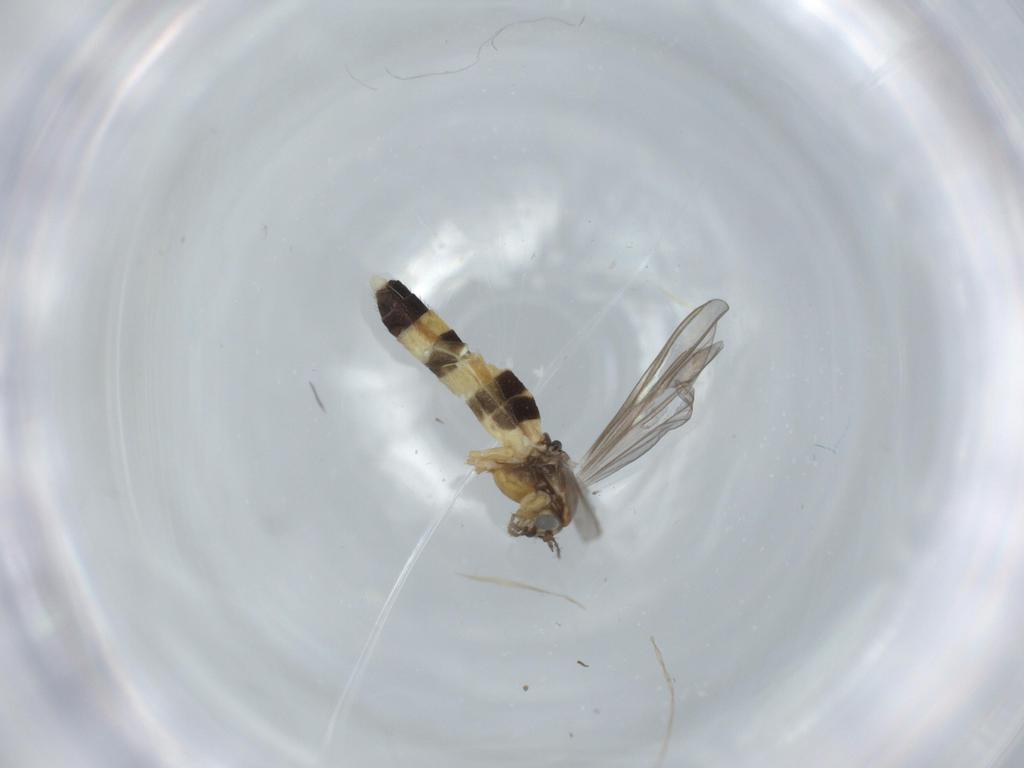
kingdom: Animalia
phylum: Arthropoda
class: Insecta
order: Diptera
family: Chironomidae
